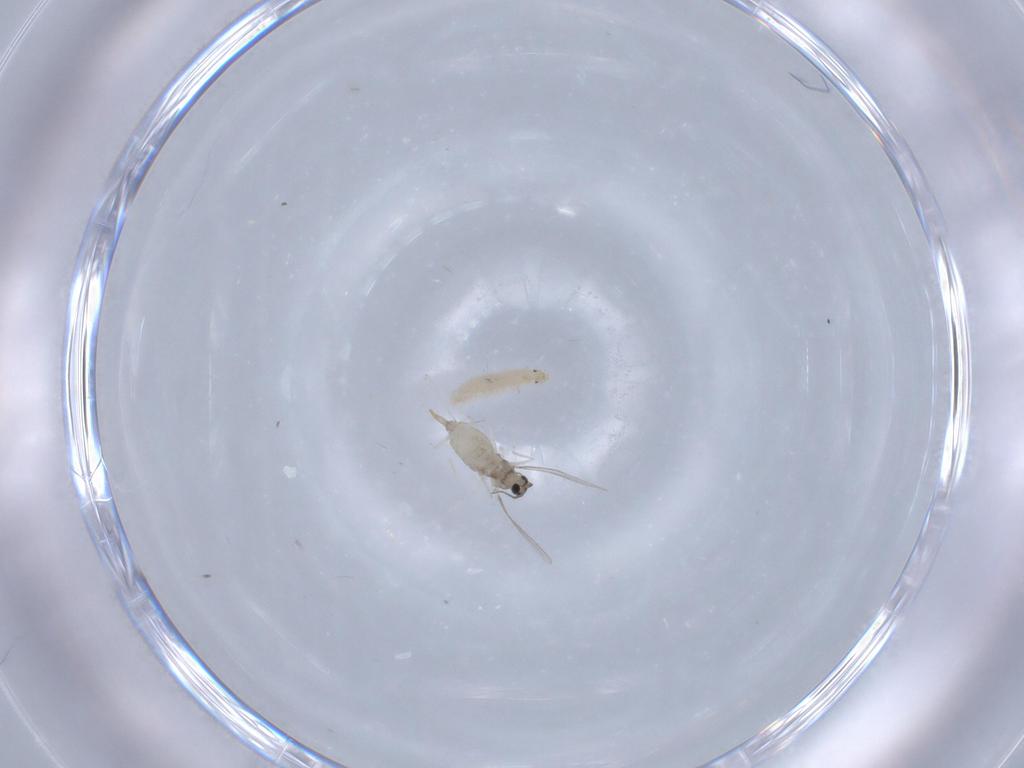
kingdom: Animalia
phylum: Arthropoda
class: Insecta
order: Diptera
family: Cecidomyiidae
